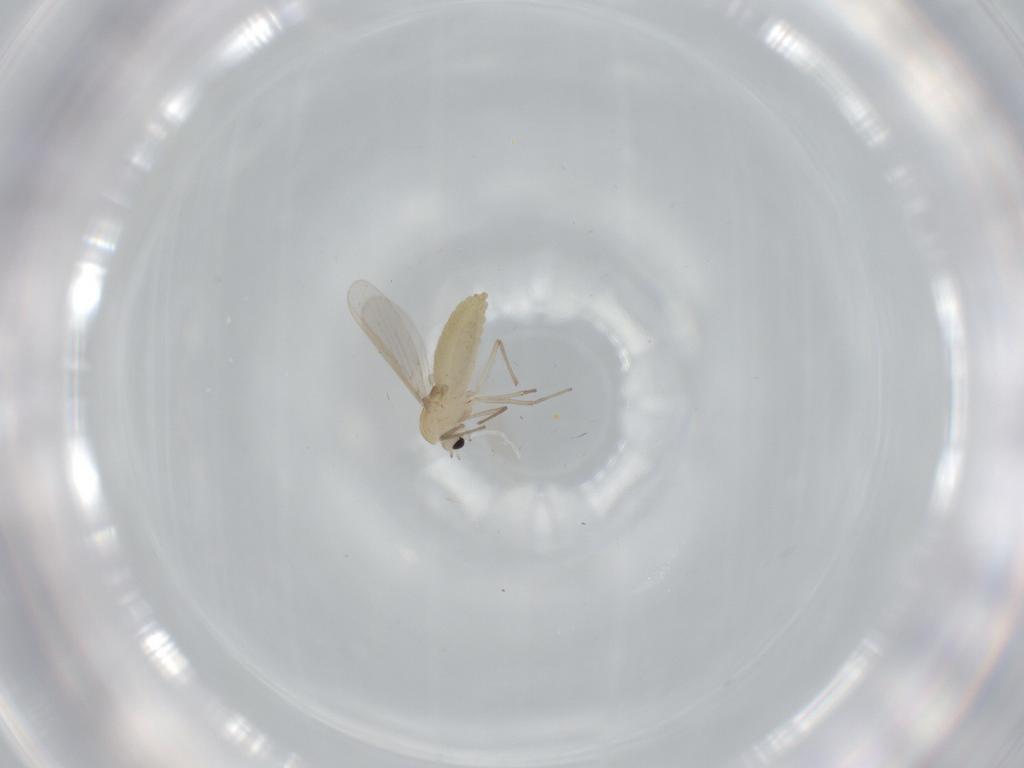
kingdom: Animalia
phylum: Arthropoda
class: Insecta
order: Diptera
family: Chironomidae
